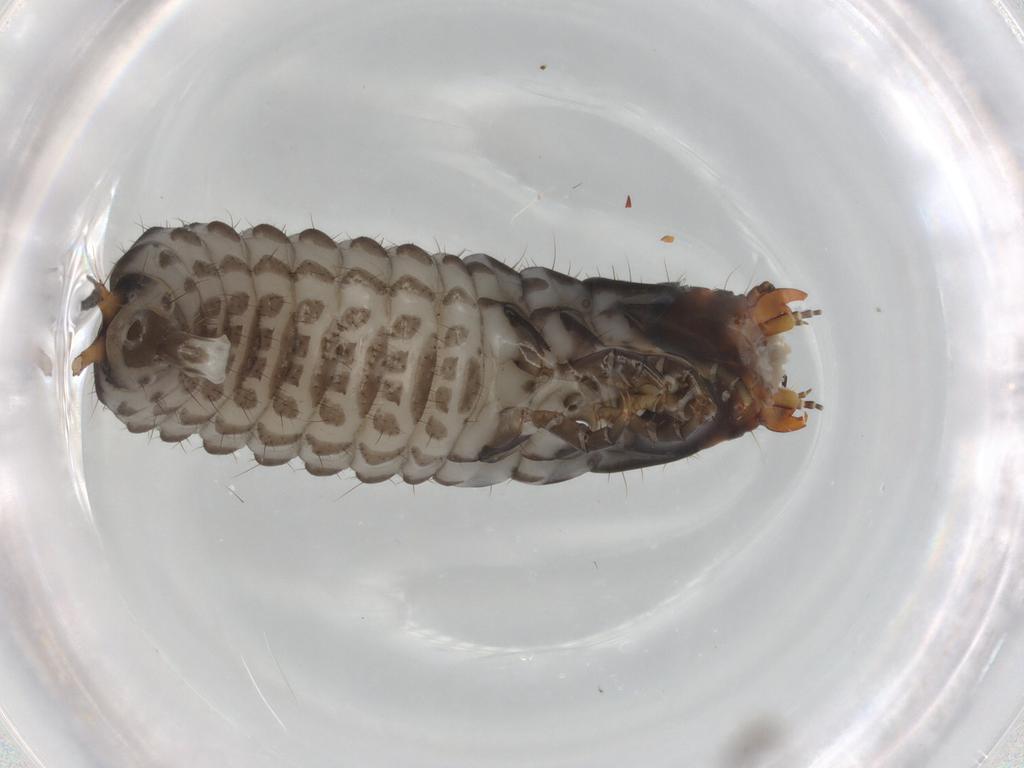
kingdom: Animalia
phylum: Arthropoda
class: Insecta
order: Coleoptera
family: Carabidae
